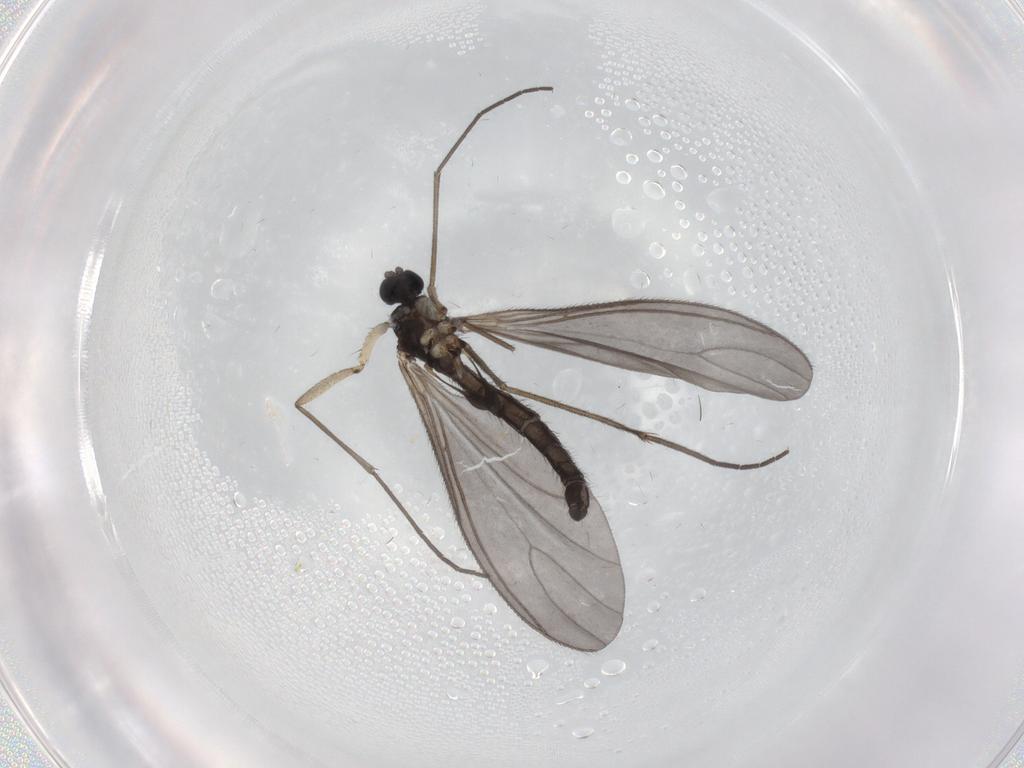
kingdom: Animalia
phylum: Arthropoda
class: Insecta
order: Diptera
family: Sciaridae
